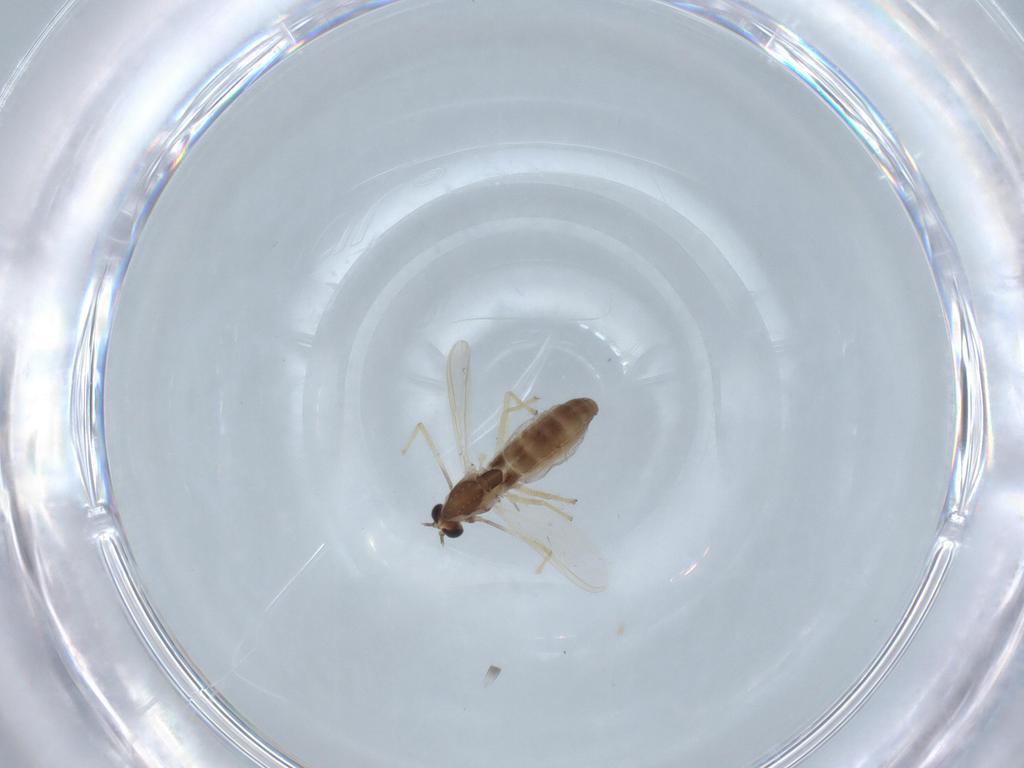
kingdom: Animalia
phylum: Arthropoda
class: Insecta
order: Diptera
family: Chironomidae
